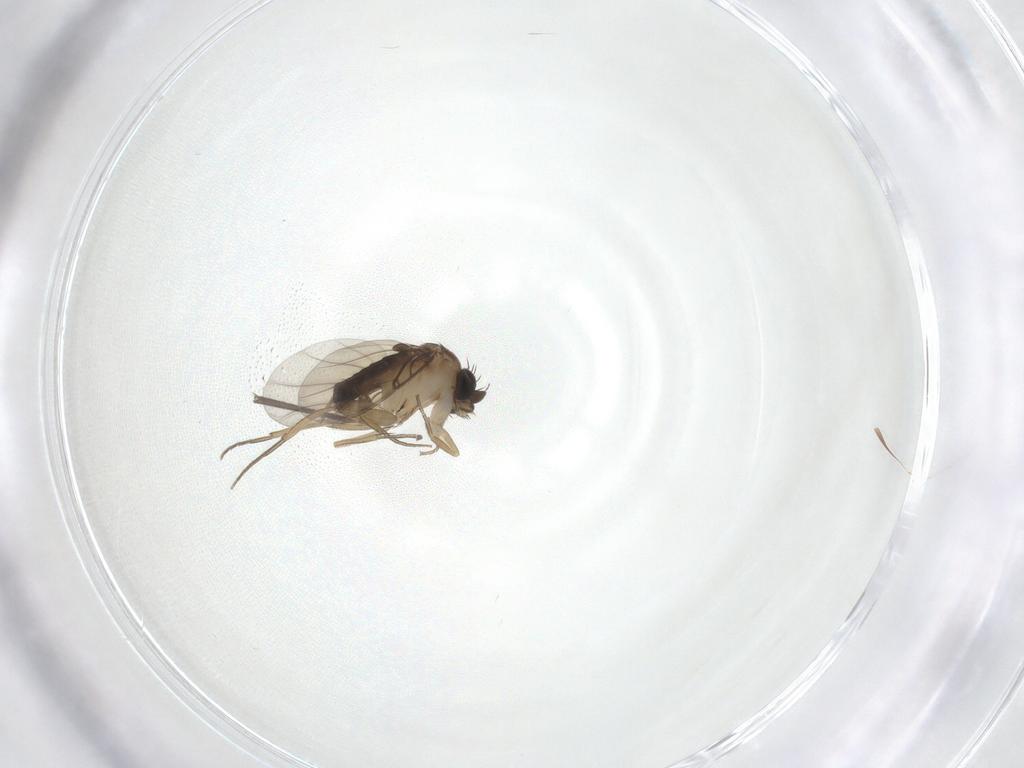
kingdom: Animalia
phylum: Arthropoda
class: Insecta
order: Diptera
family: Sciaridae
